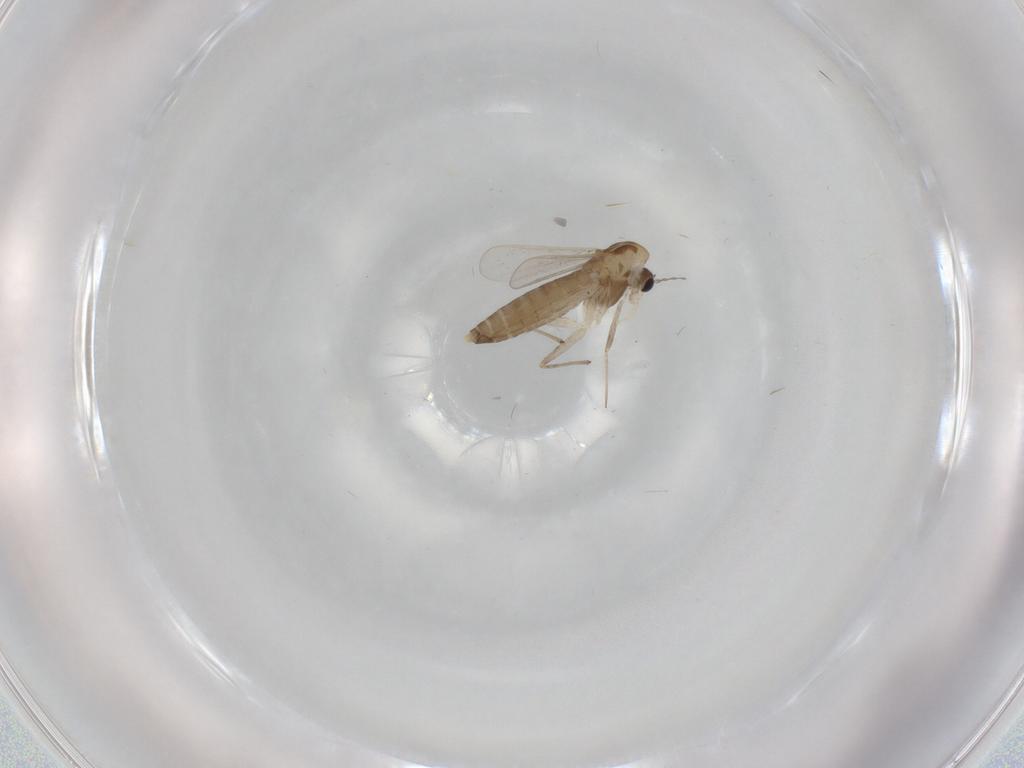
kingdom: Animalia
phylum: Arthropoda
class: Insecta
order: Diptera
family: Chironomidae
